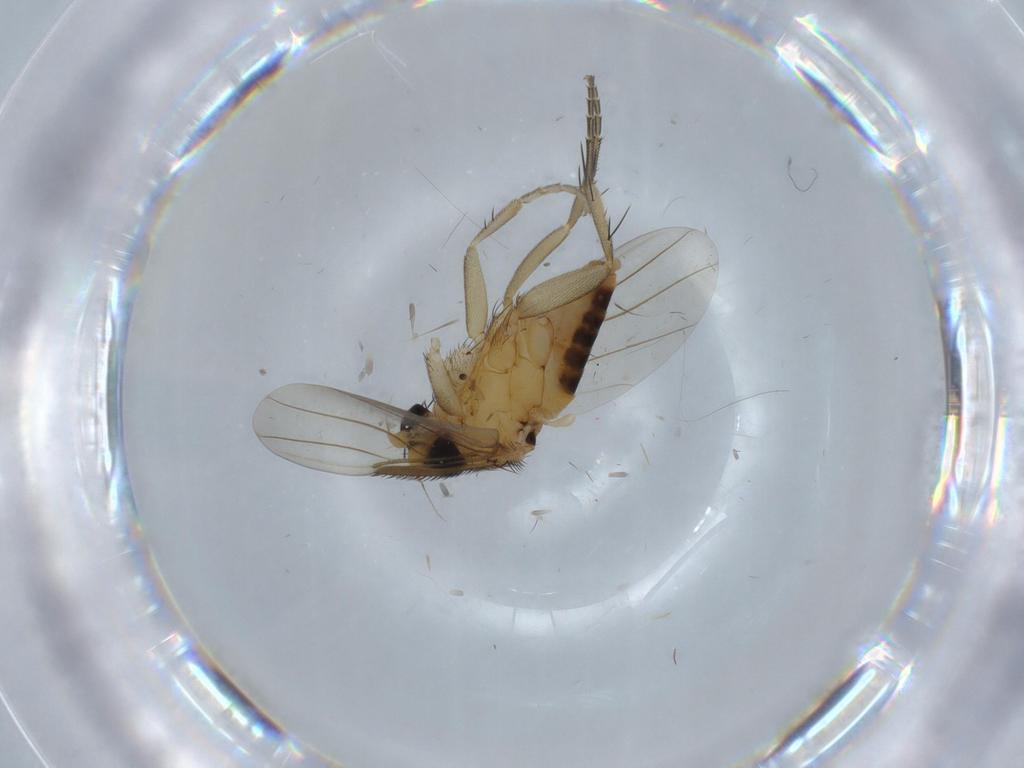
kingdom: Animalia
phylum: Arthropoda
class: Insecta
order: Diptera
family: Phoridae
